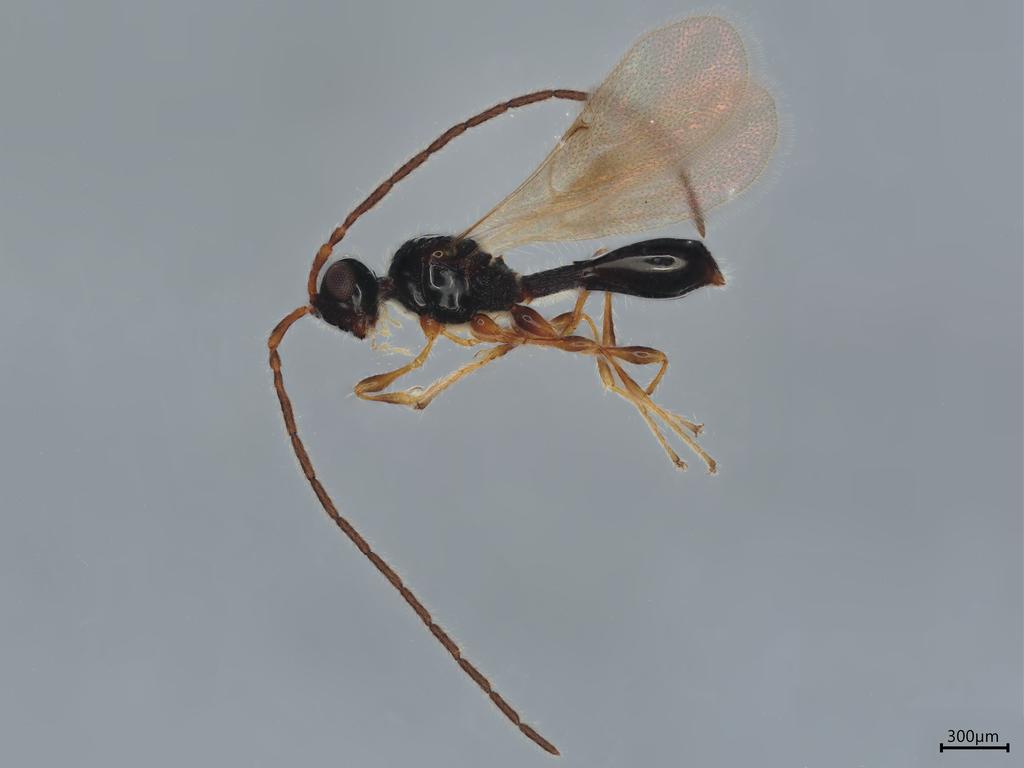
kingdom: Animalia
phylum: Arthropoda
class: Insecta
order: Hymenoptera
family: Diapriidae
